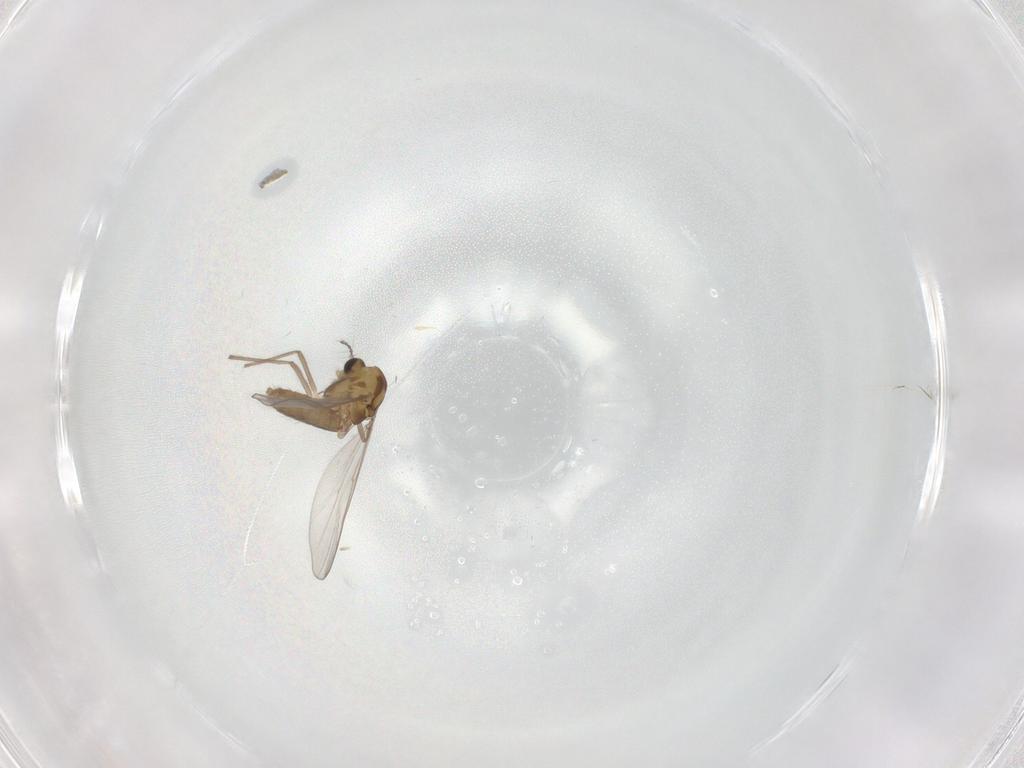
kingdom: Animalia
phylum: Arthropoda
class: Insecta
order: Diptera
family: Chironomidae
